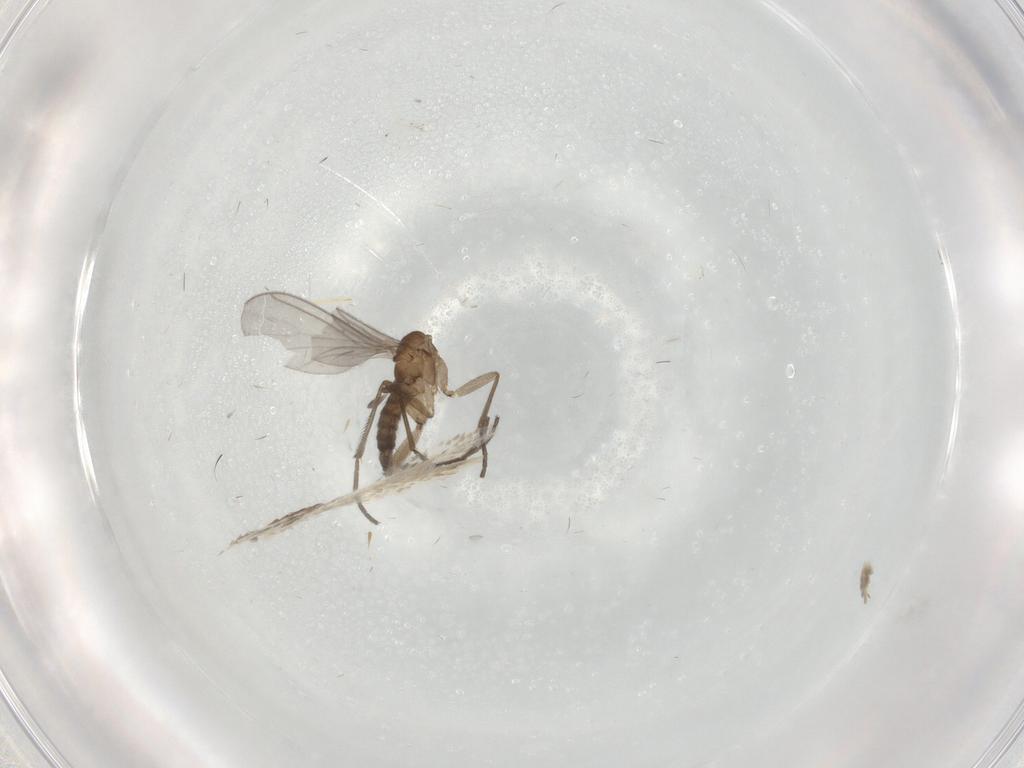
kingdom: Animalia
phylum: Arthropoda
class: Insecta
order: Diptera
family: Sciaridae
